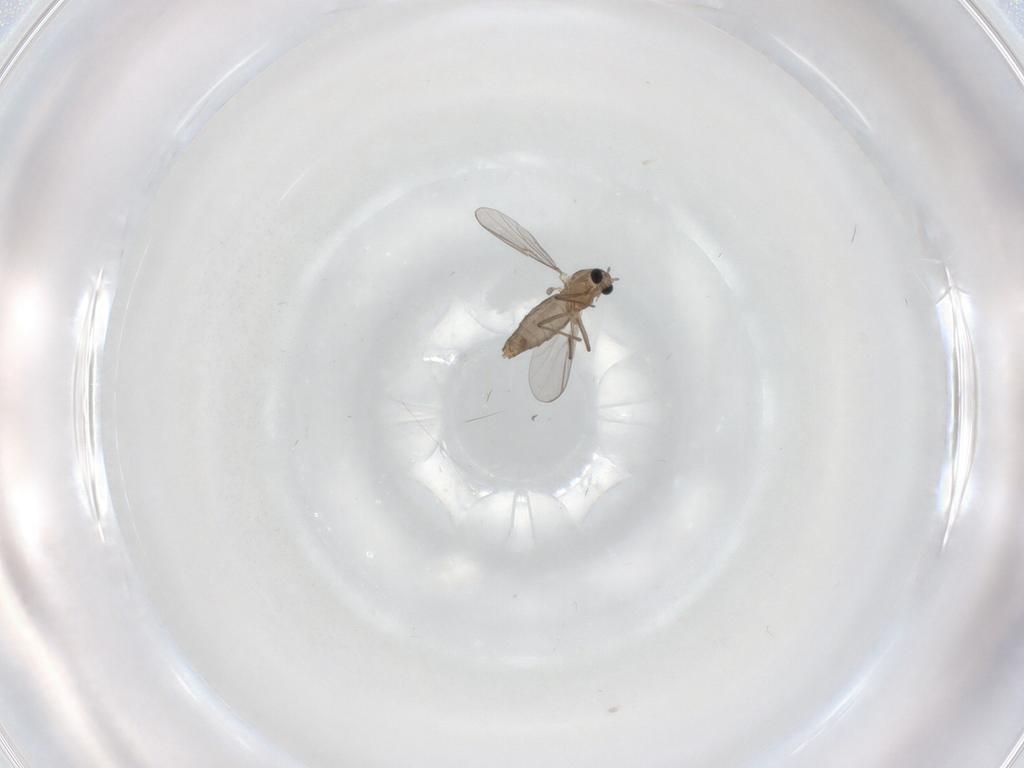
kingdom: Animalia
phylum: Arthropoda
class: Insecta
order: Diptera
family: Chironomidae
